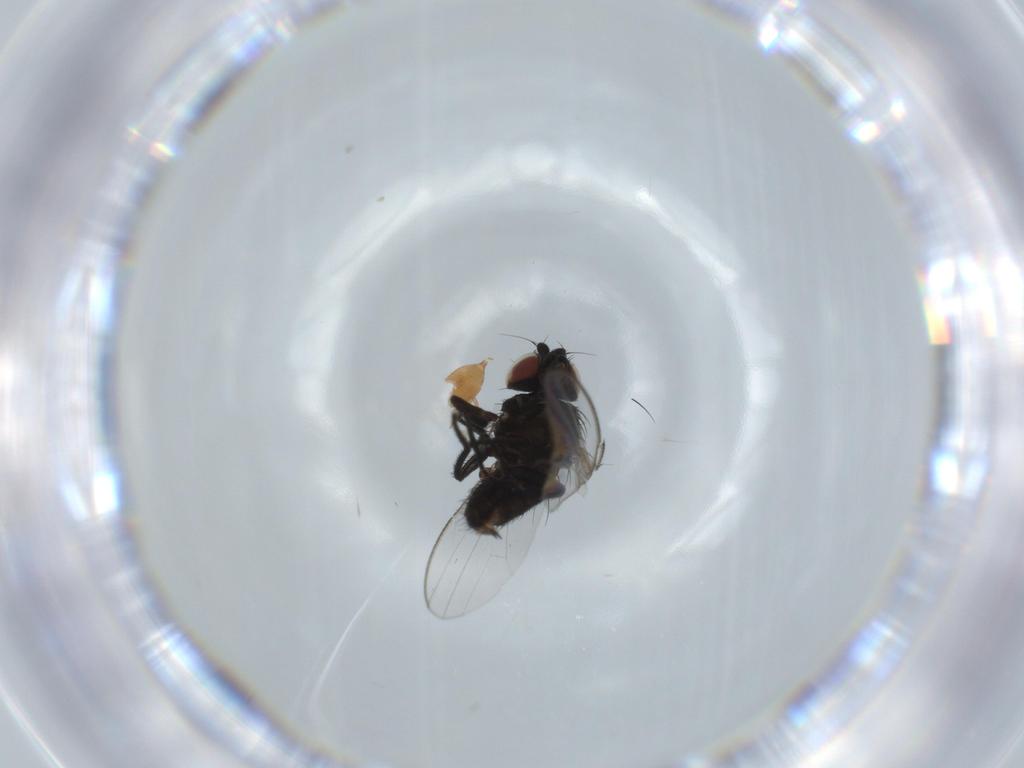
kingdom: Animalia
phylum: Arthropoda
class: Insecta
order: Diptera
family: Milichiidae
